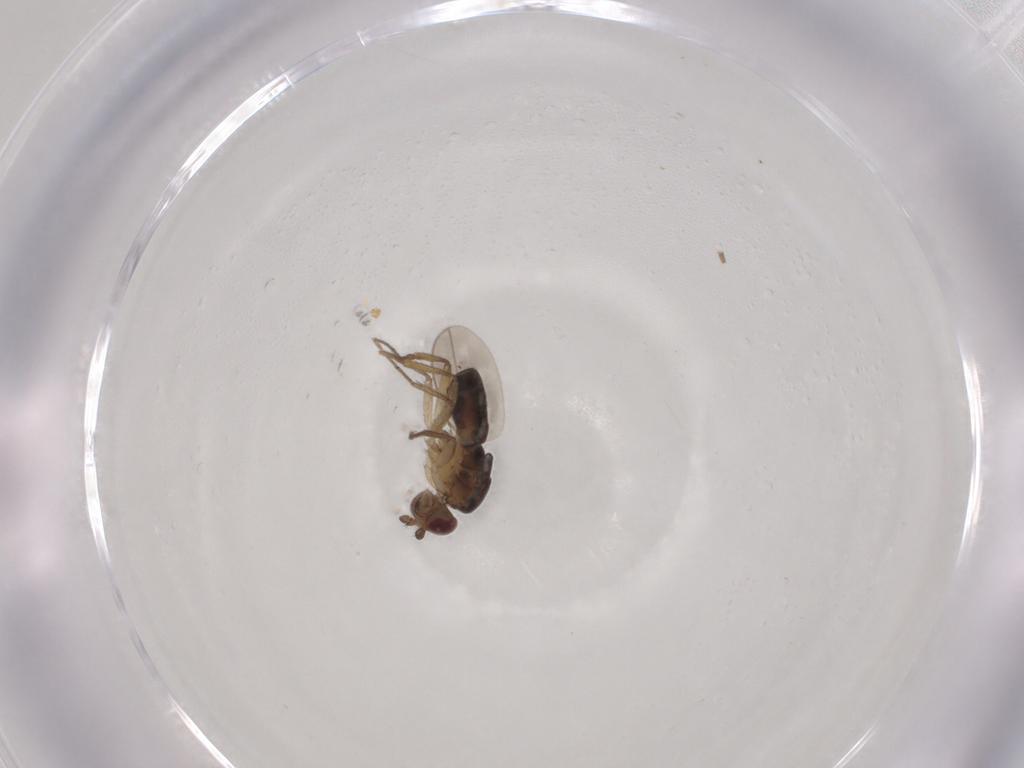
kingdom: Animalia
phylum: Arthropoda
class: Insecta
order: Diptera
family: Sphaeroceridae
